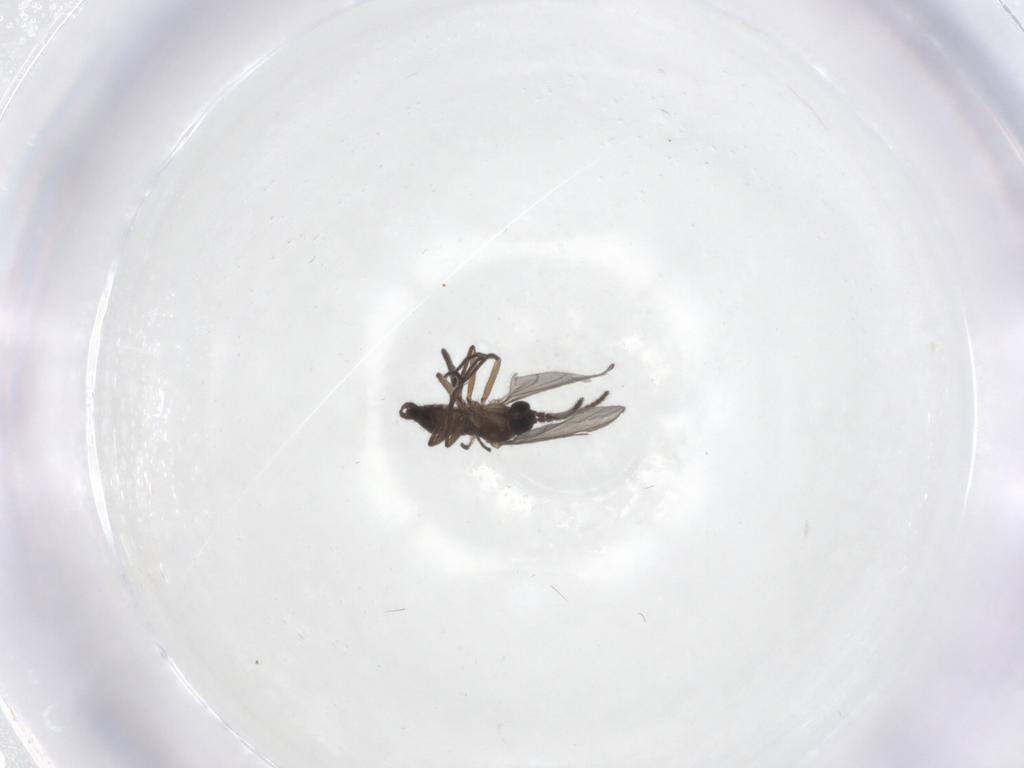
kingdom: Animalia
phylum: Arthropoda
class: Insecta
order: Diptera
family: Sciaridae
